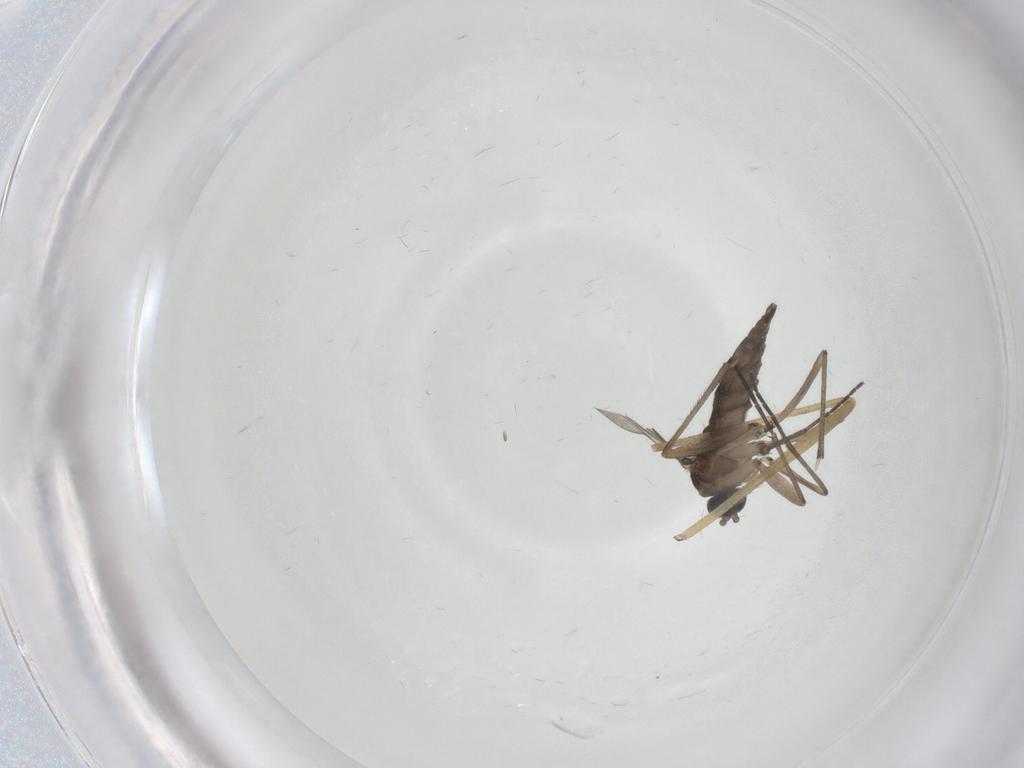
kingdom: Animalia
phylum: Arthropoda
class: Insecta
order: Diptera
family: Sciaridae
